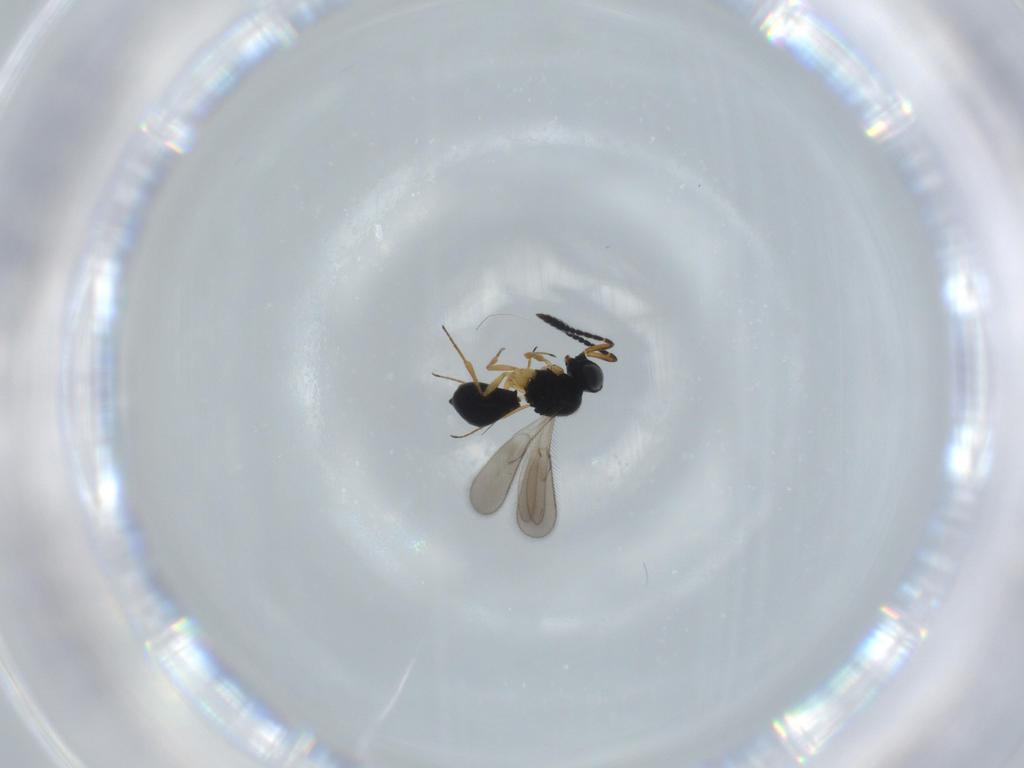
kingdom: Animalia
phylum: Arthropoda
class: Insecta
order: Hymenoptera
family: Scelionidae
